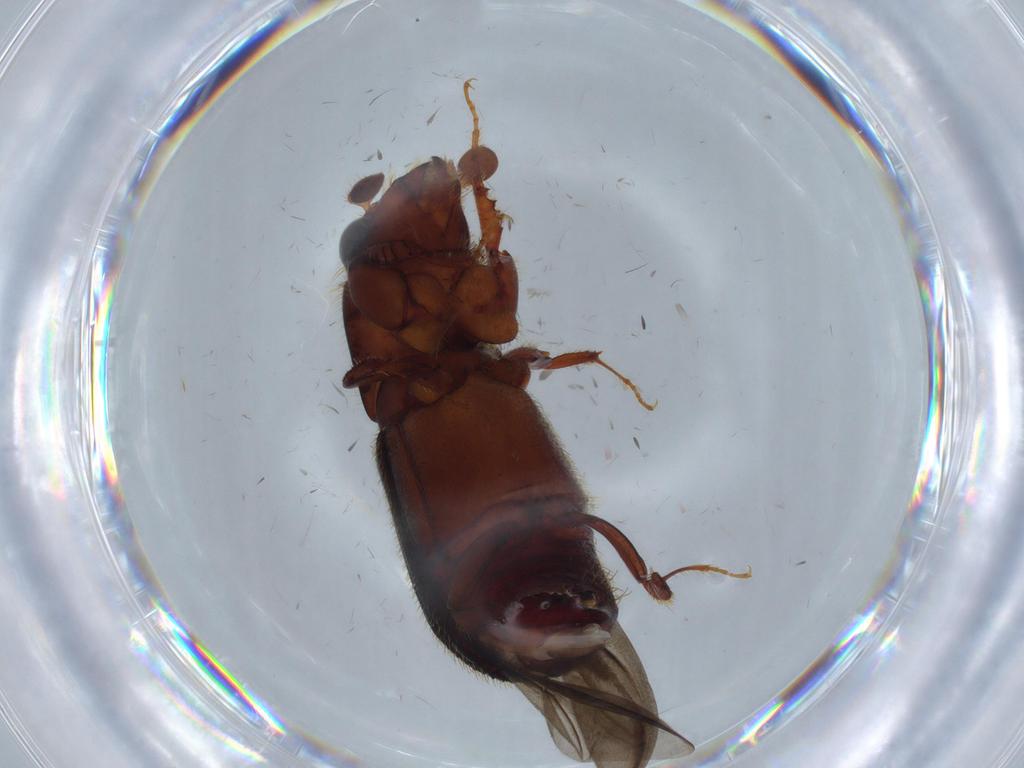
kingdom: Animalia
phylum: Arthropoda
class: Insecta
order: Coleoptera
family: Curculionidae
